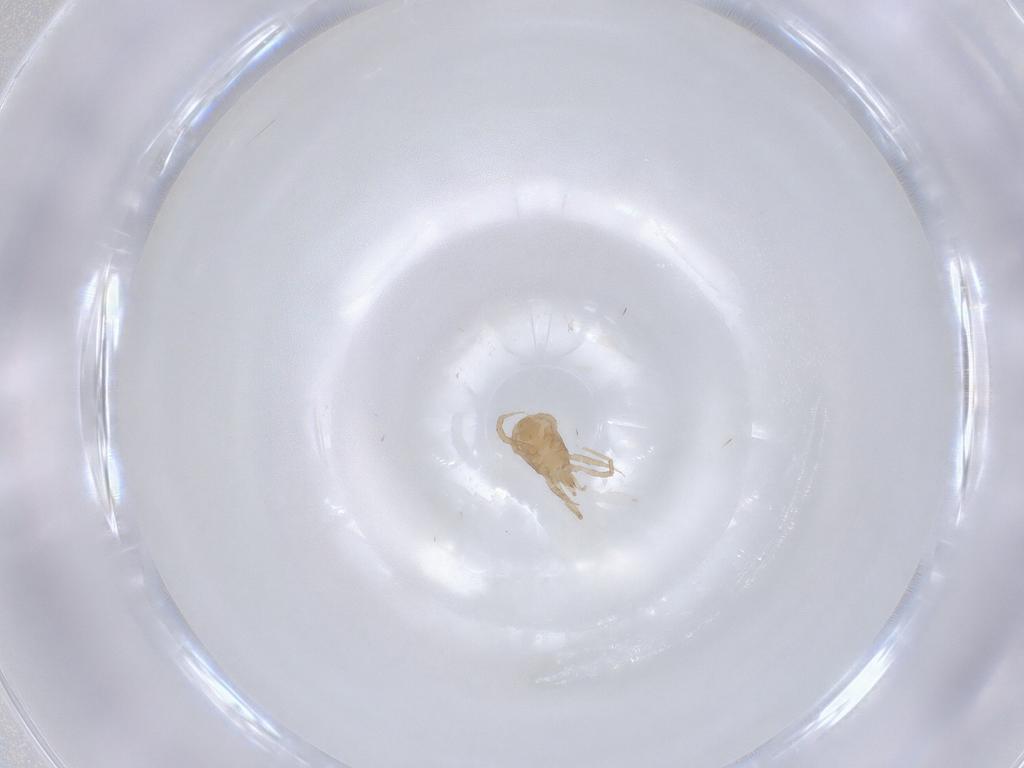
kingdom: Animalia
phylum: Arthropoda
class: Arachnida
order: Mesostigmata
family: Blattisociidae
